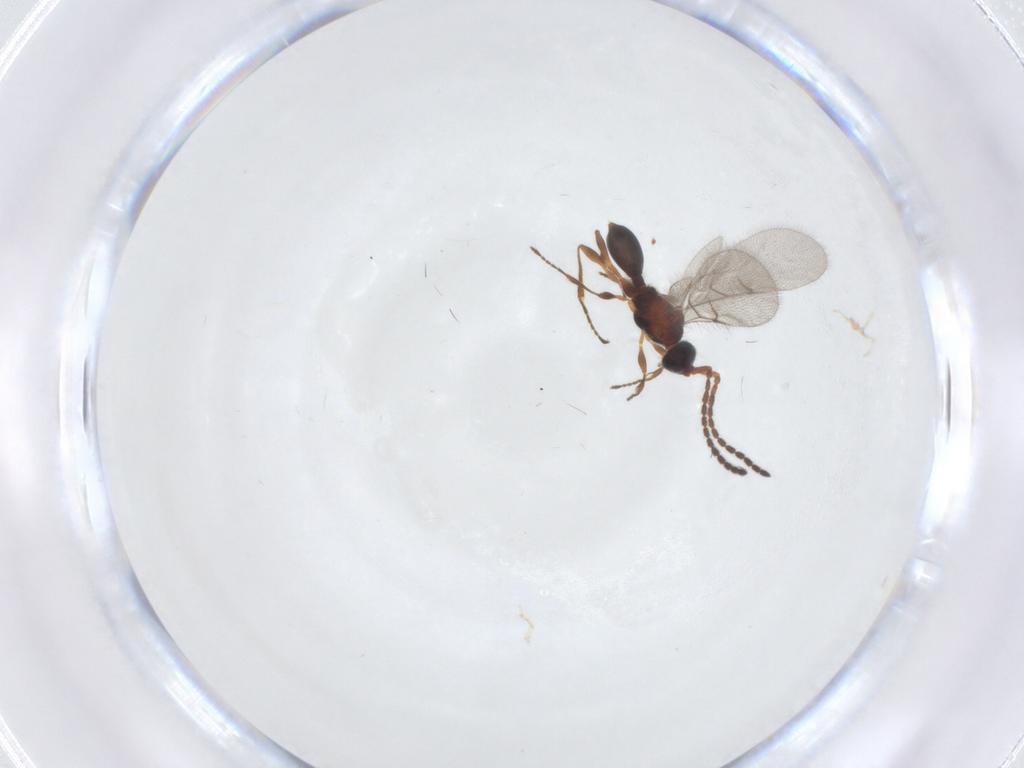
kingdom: Animalia
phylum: Arthropoda
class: Insecta
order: Hymenoptera
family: Diapriidae
